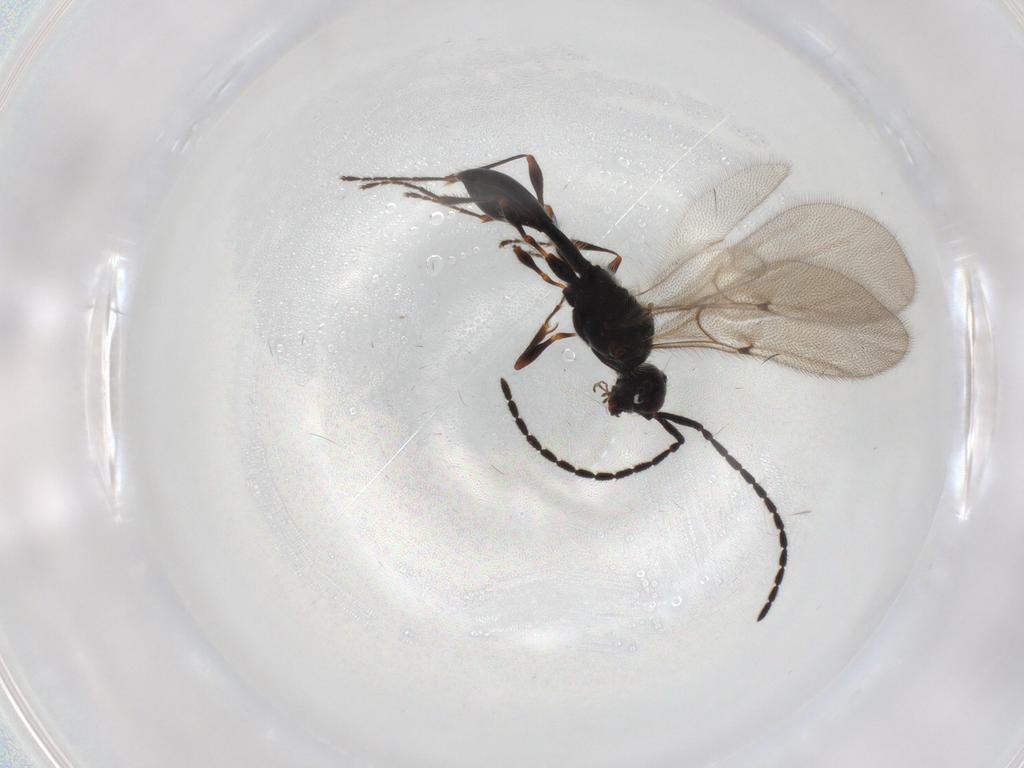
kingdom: Animalia
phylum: Arthropoda
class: Insecta
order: Hymenoptera
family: Diapriidae
